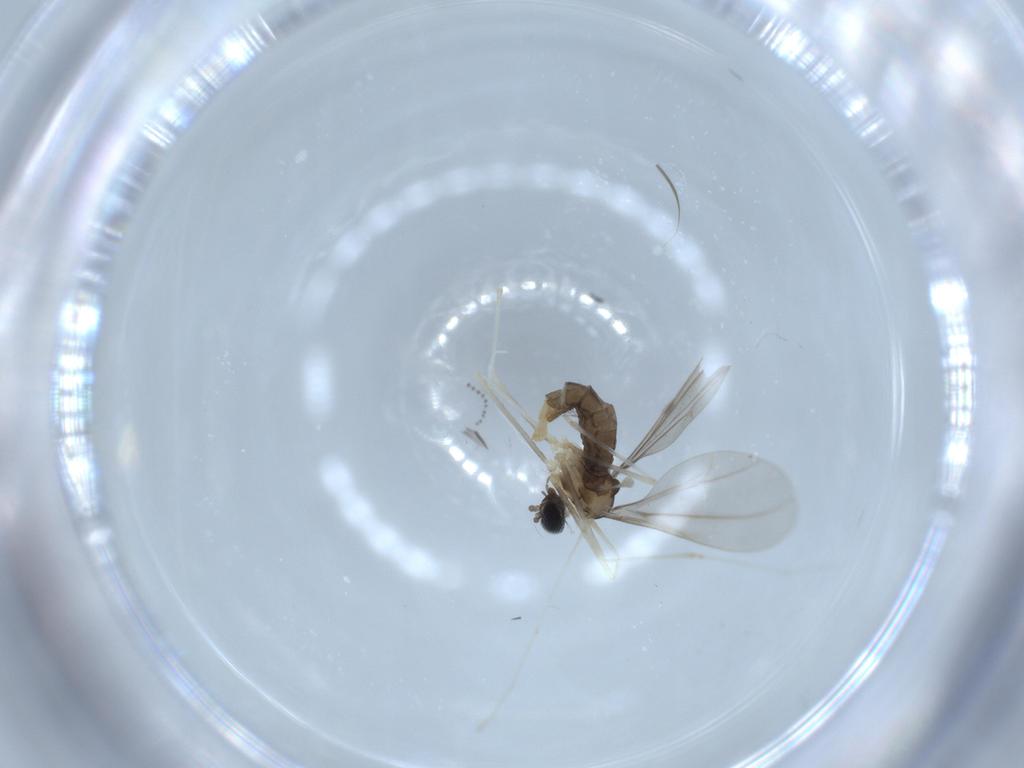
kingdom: Animalia
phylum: Arthropoda
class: Insecta
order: Diptera
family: Cecidomyiidae
